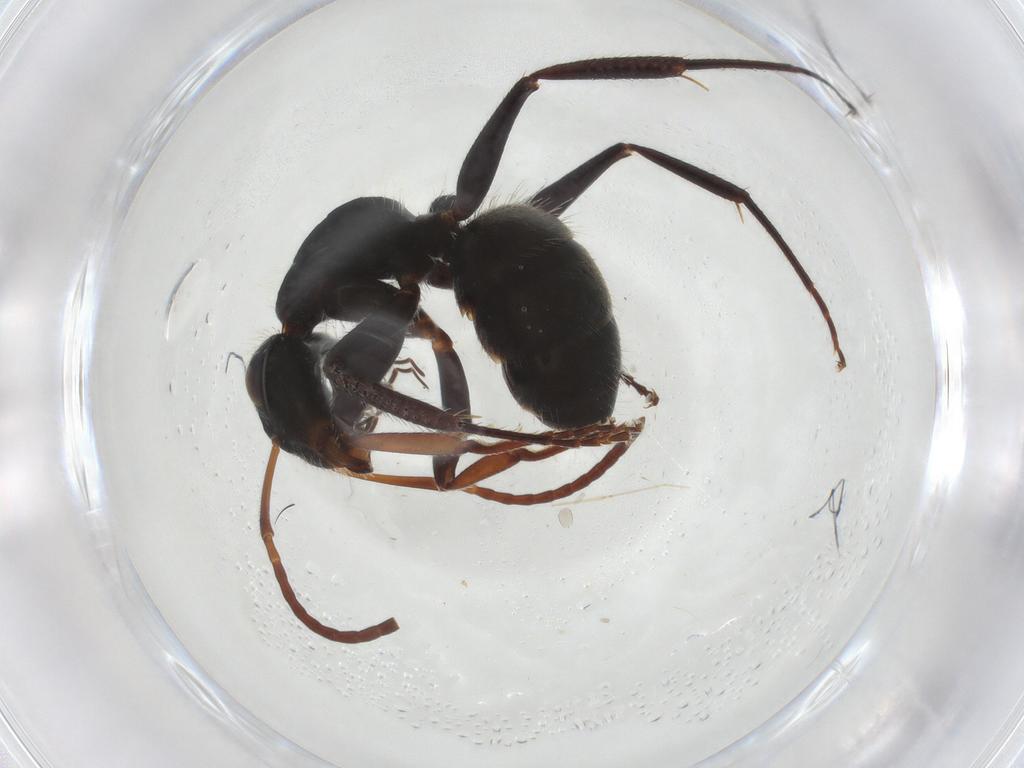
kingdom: Animalia
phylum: Arthropoda
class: Insecta
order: Hymenoptera
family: Formicidae
